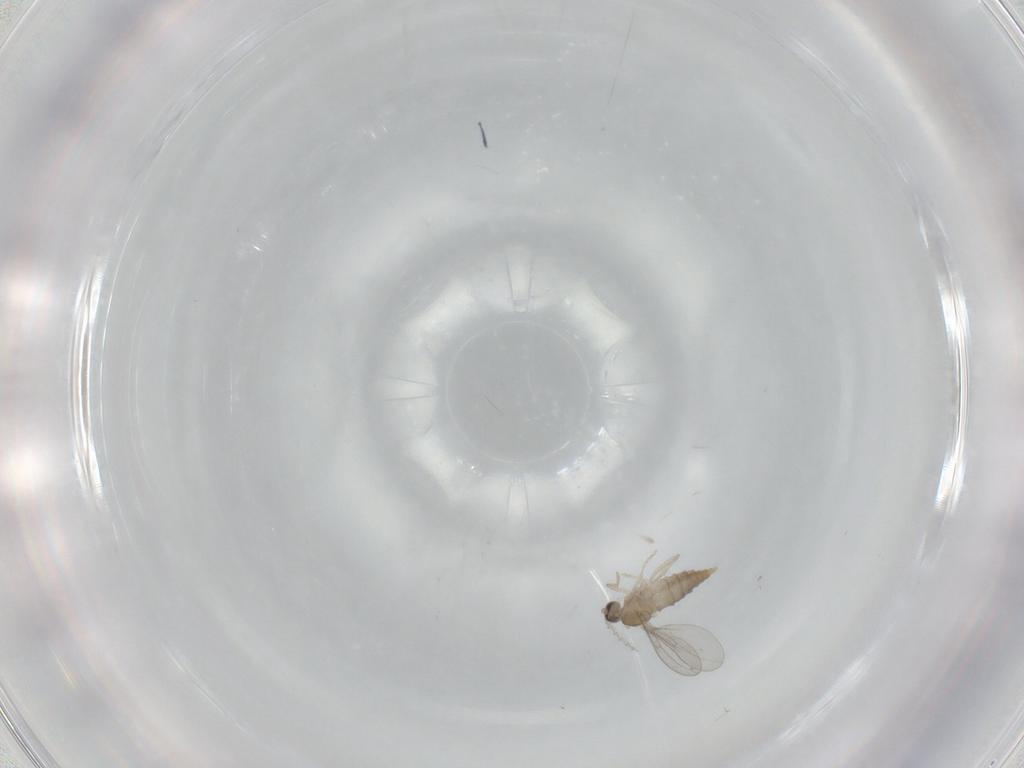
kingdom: Animalia
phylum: Arthropoda
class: Insecta
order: Diptera
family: Cecidomyiidae
